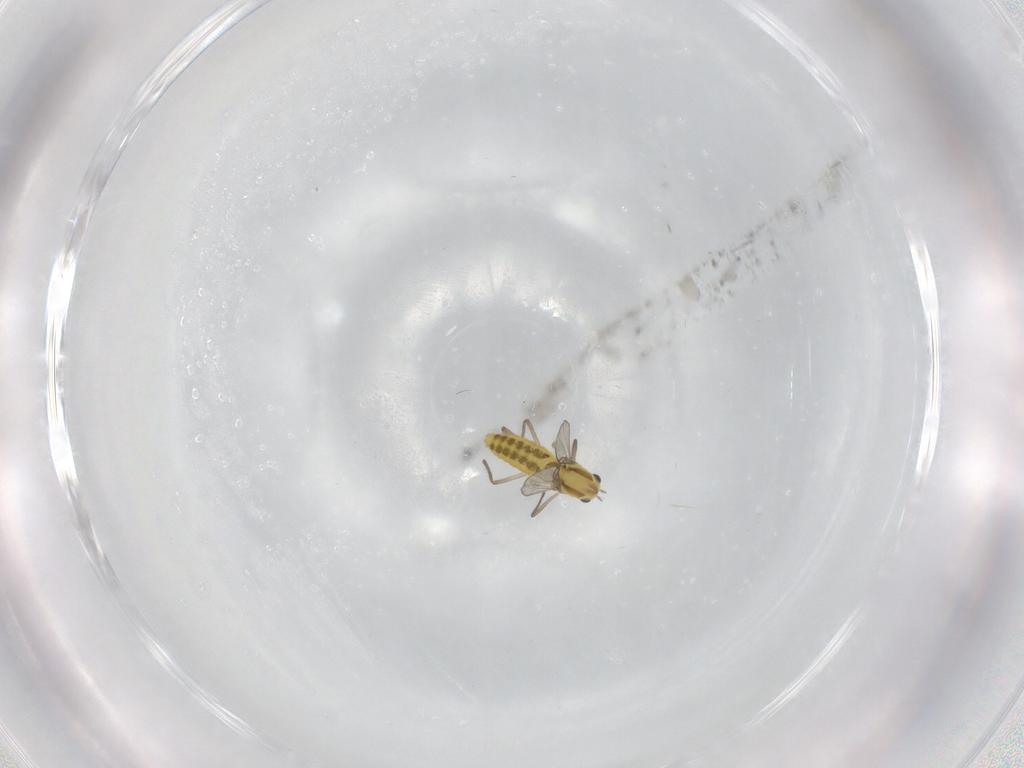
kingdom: Animalia
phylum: Arthropoda
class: Insecta
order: Diptera
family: Chironomidae
